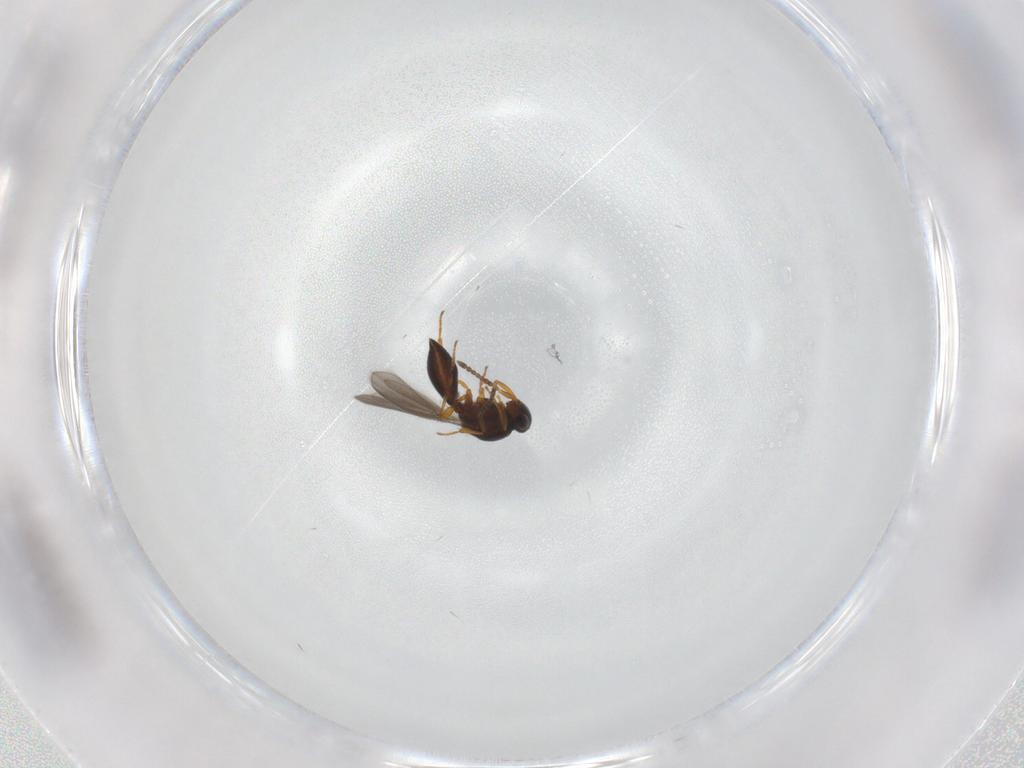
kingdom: Animalia
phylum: Arthropoda
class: Insecta
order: Hymenoptera
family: Platygastridae
